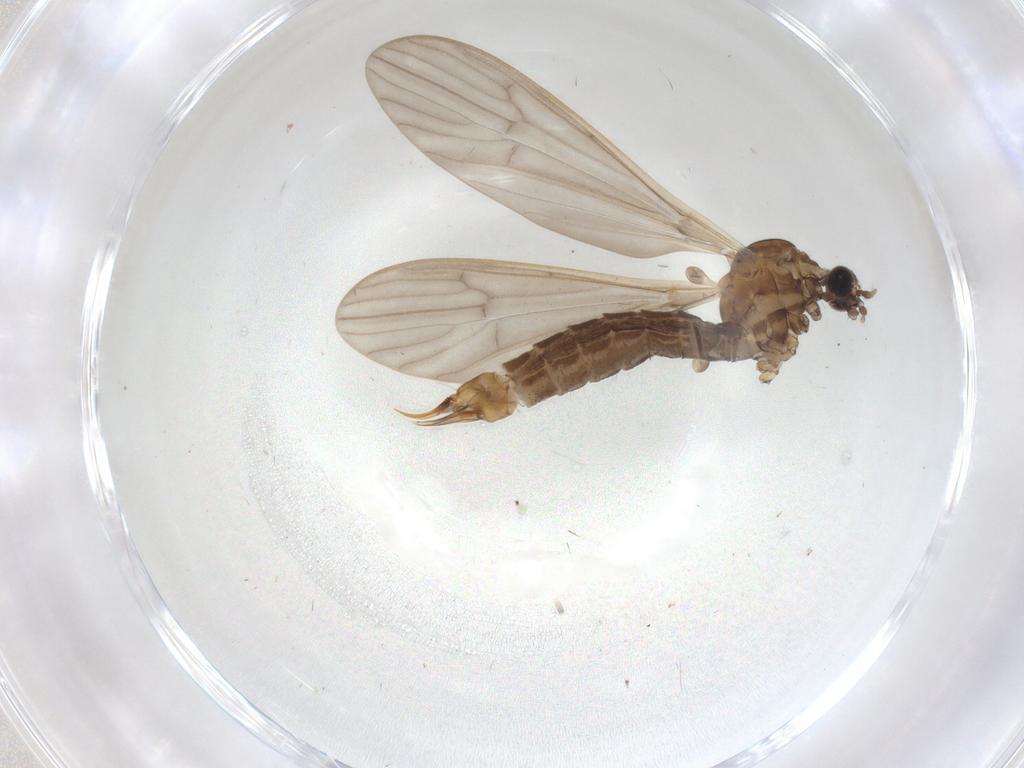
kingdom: Animalia
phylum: Arthropoda
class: Insecta
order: Diptera
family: Limoniidae
